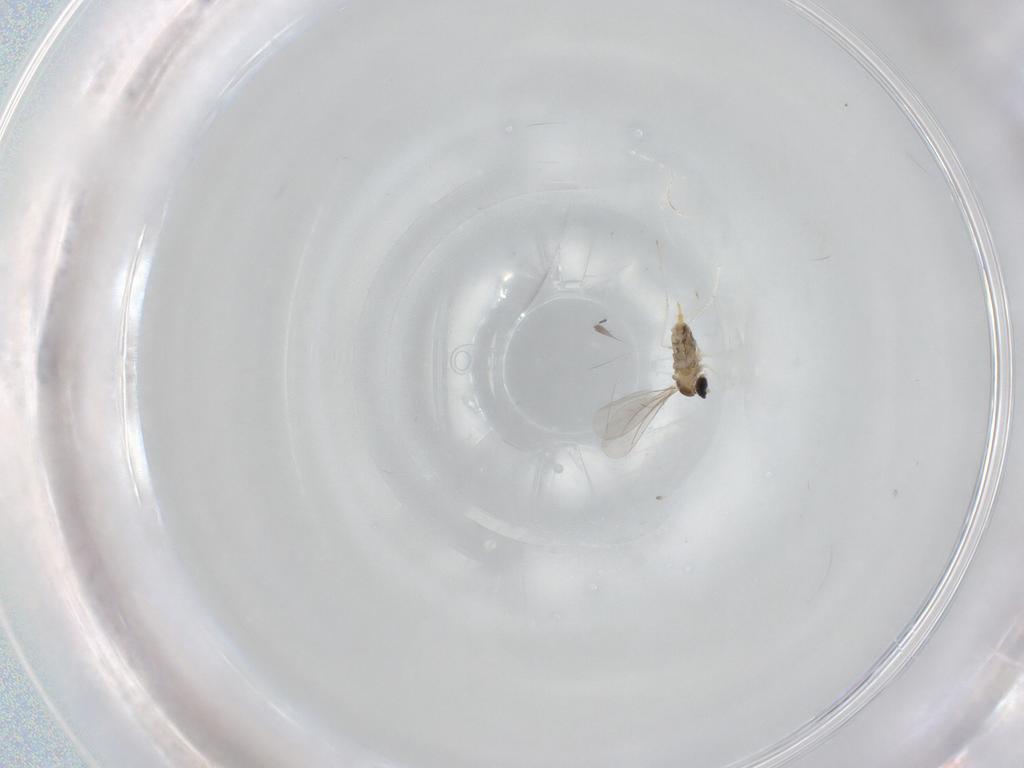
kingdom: Animalia
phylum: Arthropoda
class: Insecta
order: Diptera
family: Cecidomyiidae
